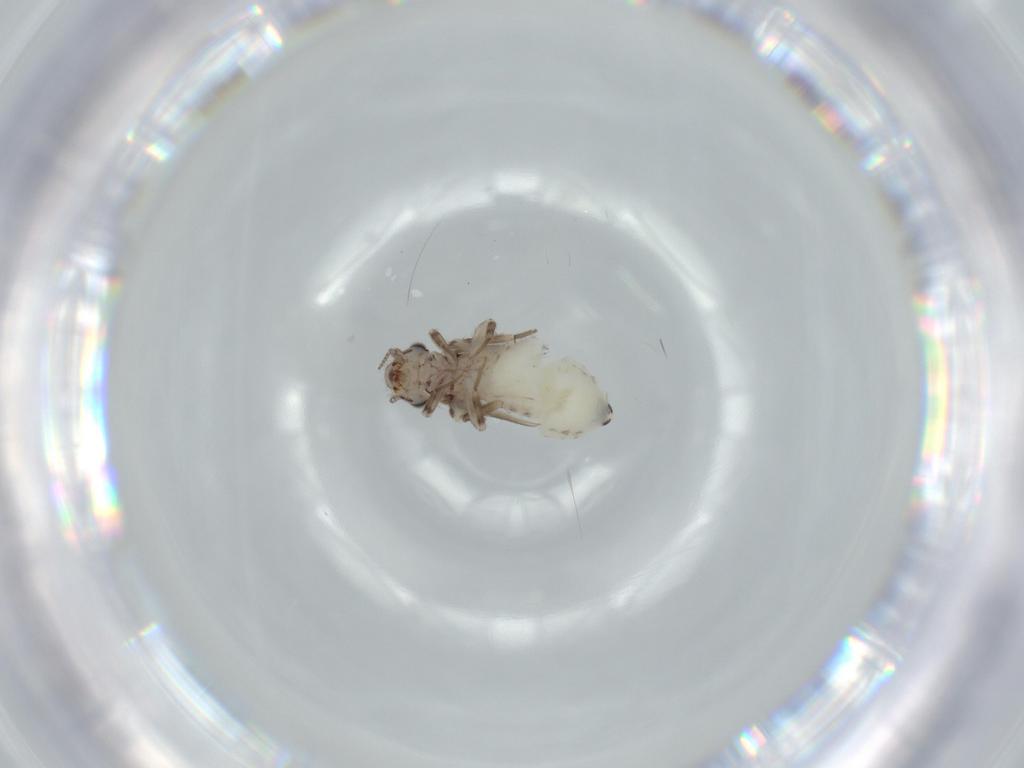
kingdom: Animalia
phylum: Arthropoda
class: Insecta
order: Psocodea
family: Lepidopsocidae
